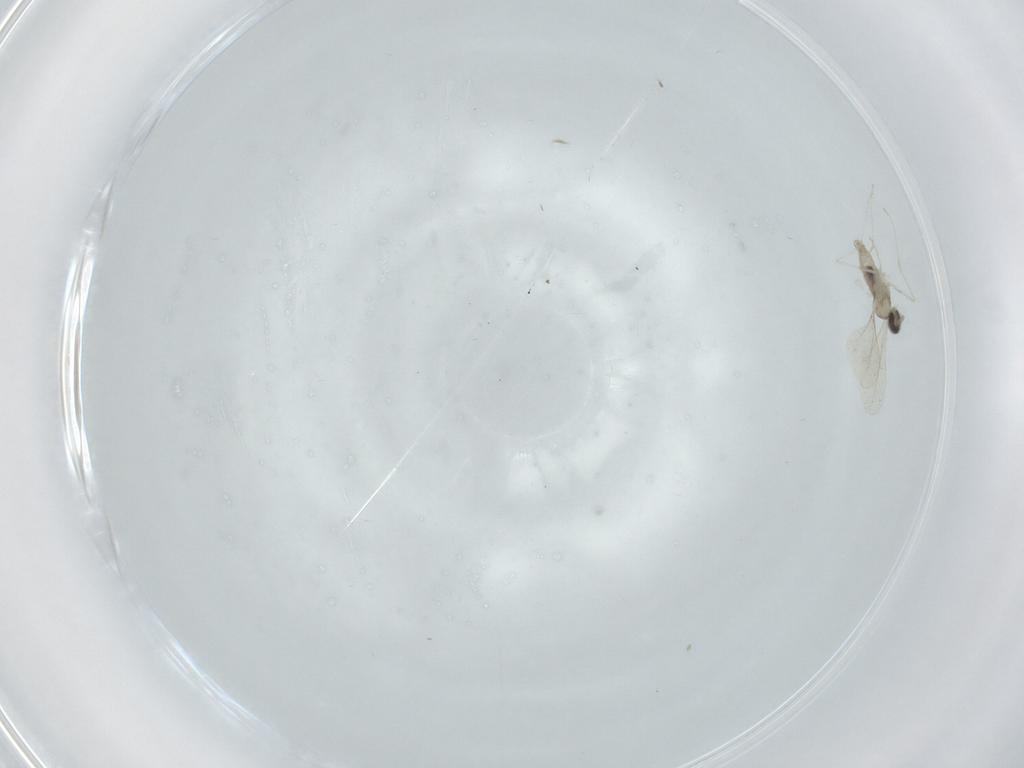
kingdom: Animalia
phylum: Arthropoda
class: Insecta
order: Diptera
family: Cecidomyiidae
